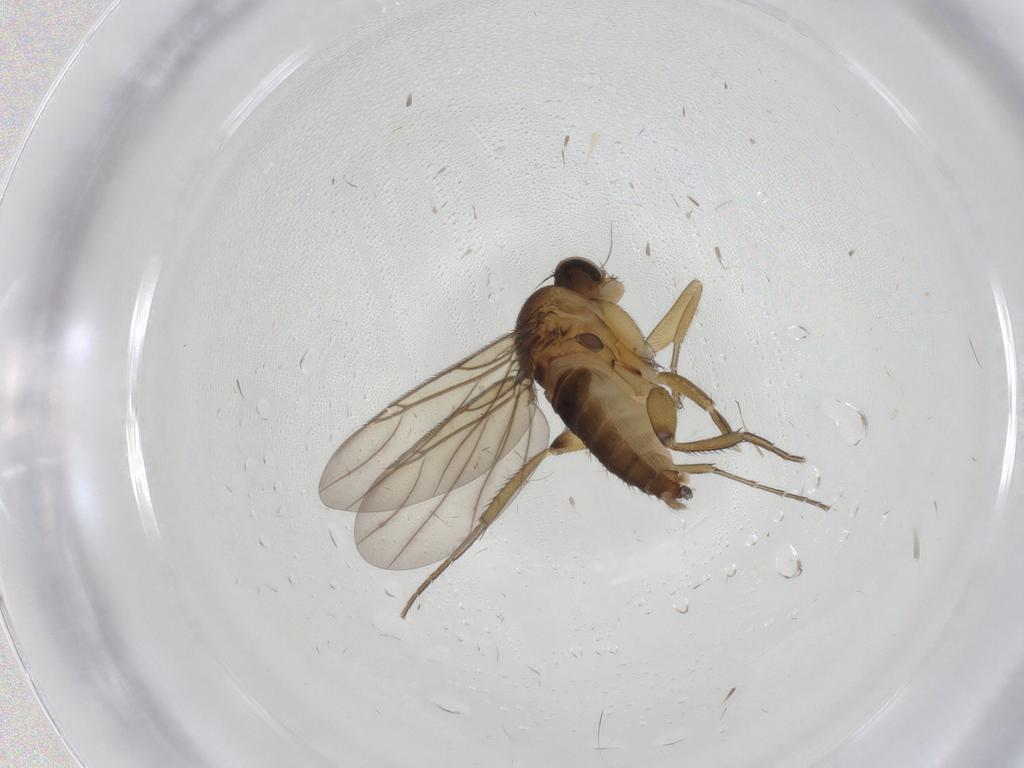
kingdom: Animalia
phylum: Arthropoda
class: Insecta
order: Diptera
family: Phoridae
